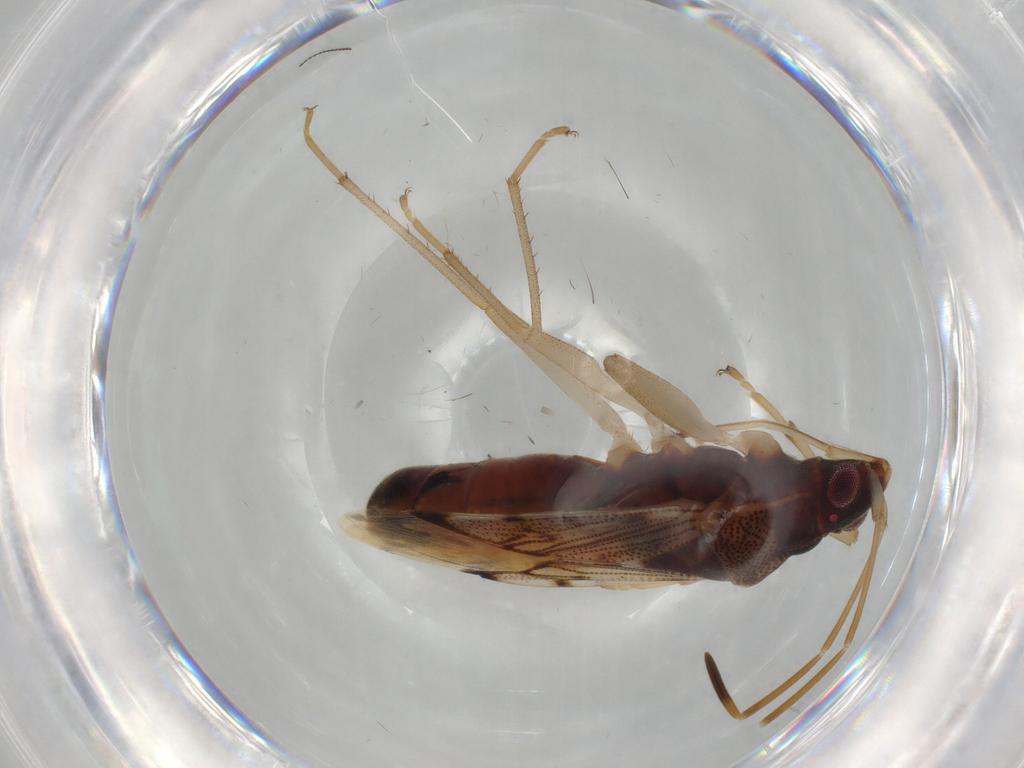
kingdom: Animalia
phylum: Arthropoda
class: Insecta
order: Hemiptera
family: Rhyparochromidae
